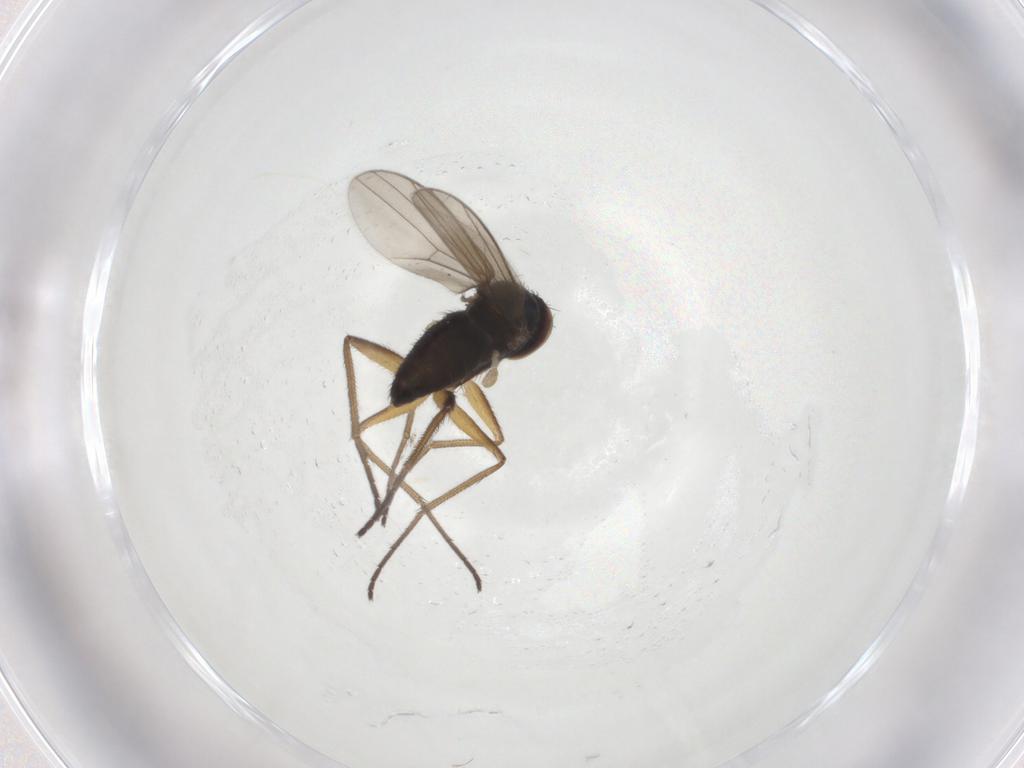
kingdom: Animalia
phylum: Arthropoda
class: Insecta
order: Diptera
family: Dolichopodidae
